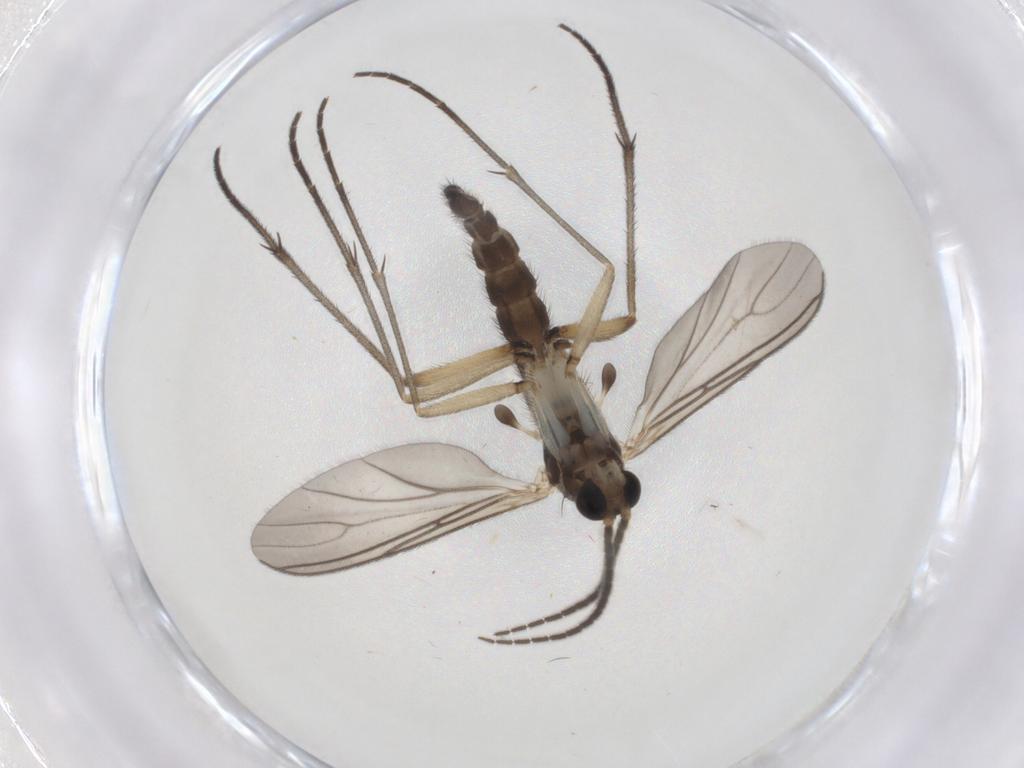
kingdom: Animalia
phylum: Arthropoda
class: Insecta
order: Diptera
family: Sciaridae
